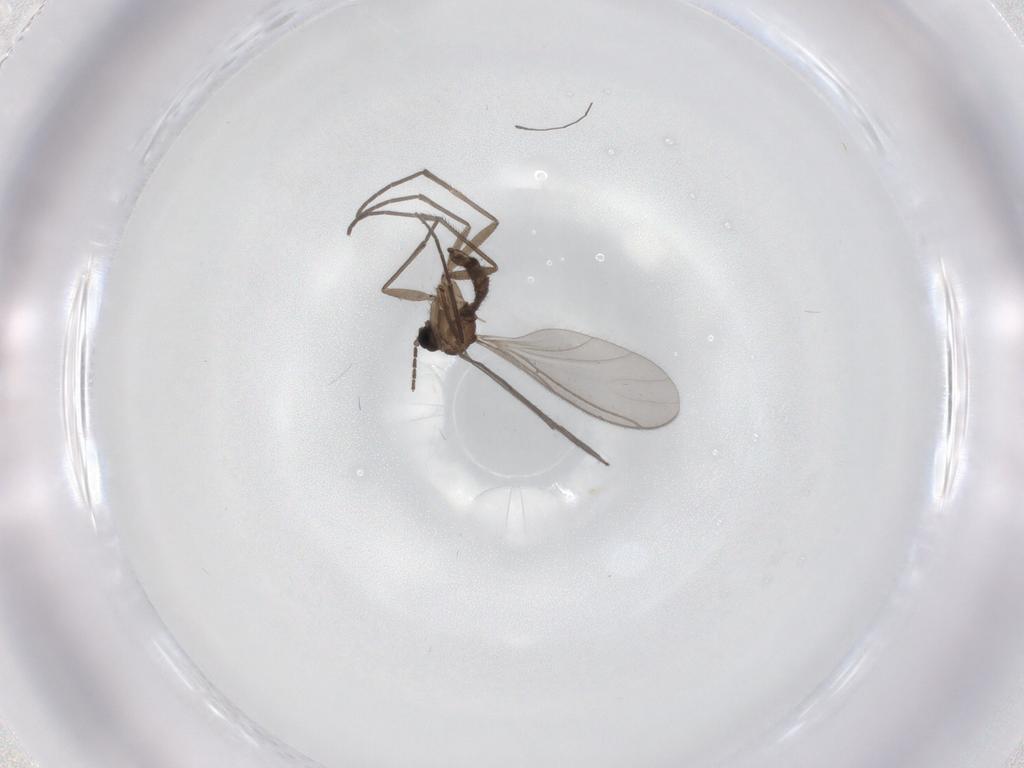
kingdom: Animalia
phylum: Arthropoda
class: Insecta
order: Diptera
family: Sciaridae
